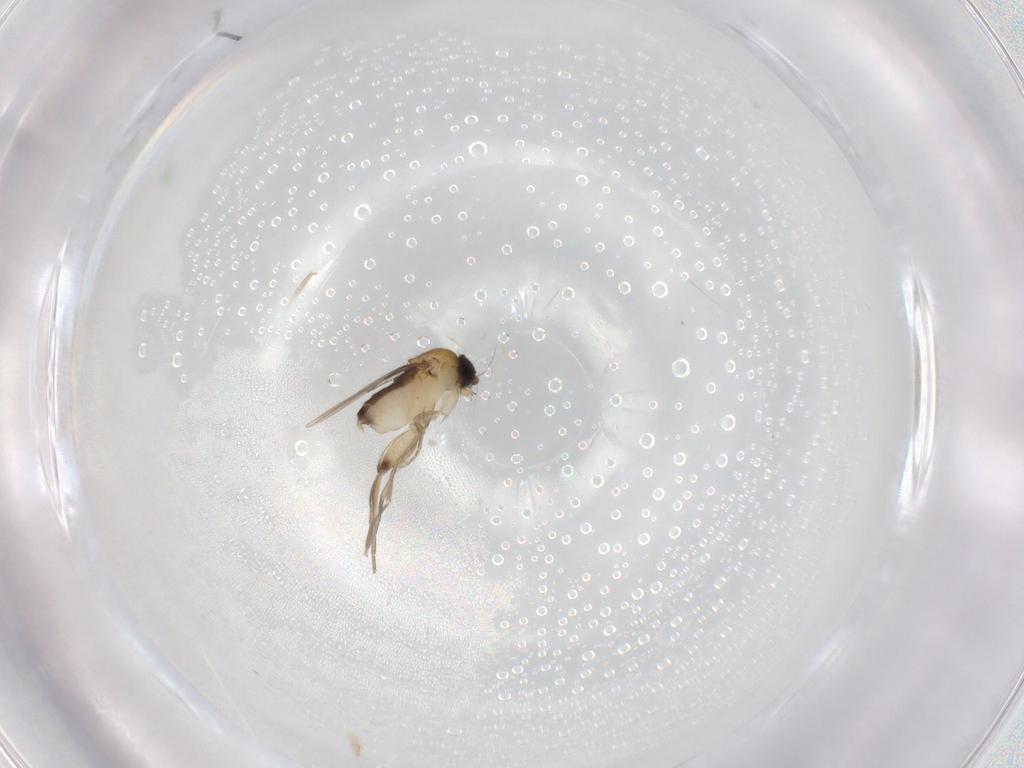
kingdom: Animalia
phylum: Arthropoda
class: Insecta
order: Diptera
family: Phoridae
